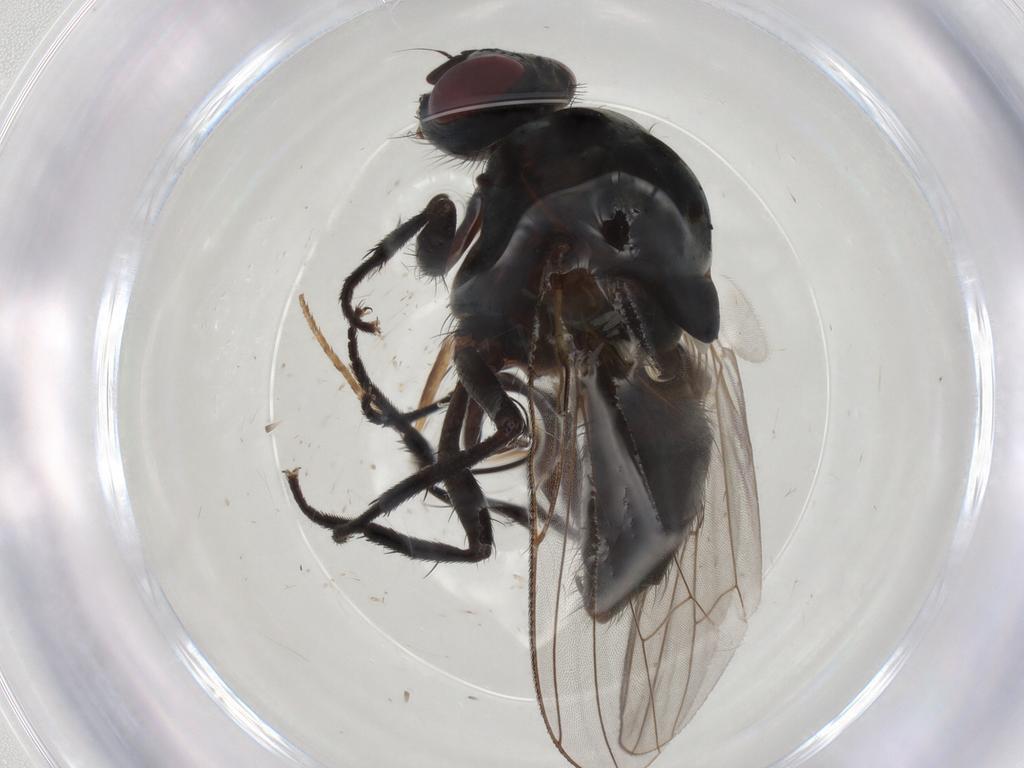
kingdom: Animalia
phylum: Arthropoda
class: Insecta
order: Diptera
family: Anthomyiidae
